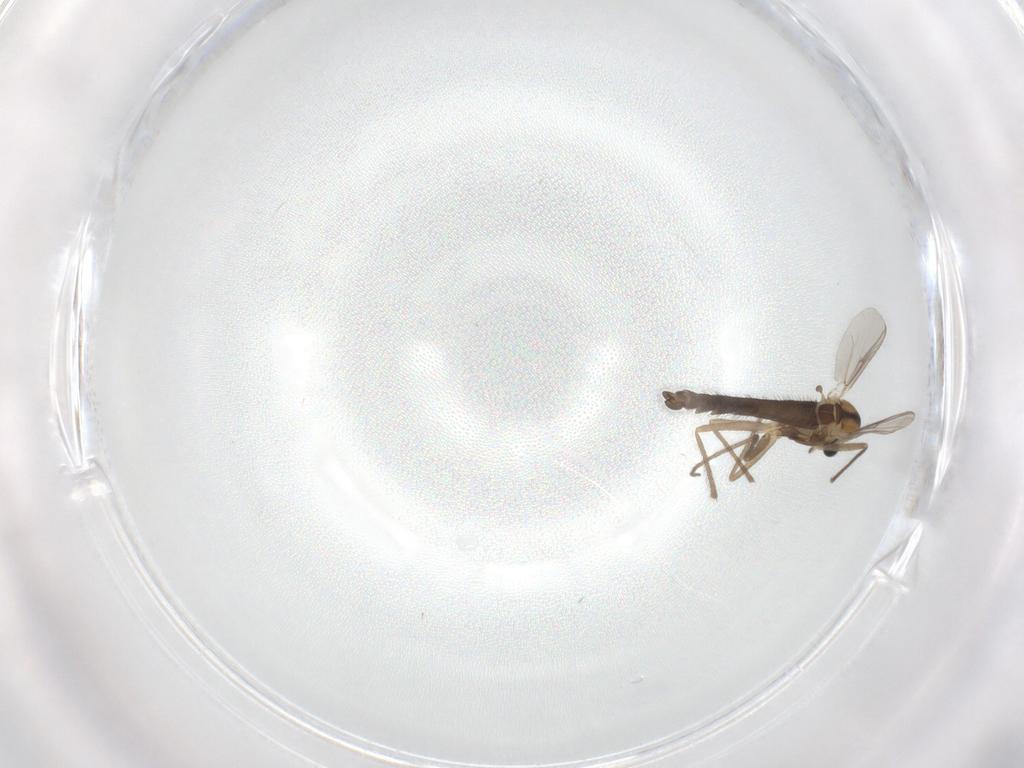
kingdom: Animalia
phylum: Arthropoda
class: Insecta
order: Diptera
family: Chironomidae
